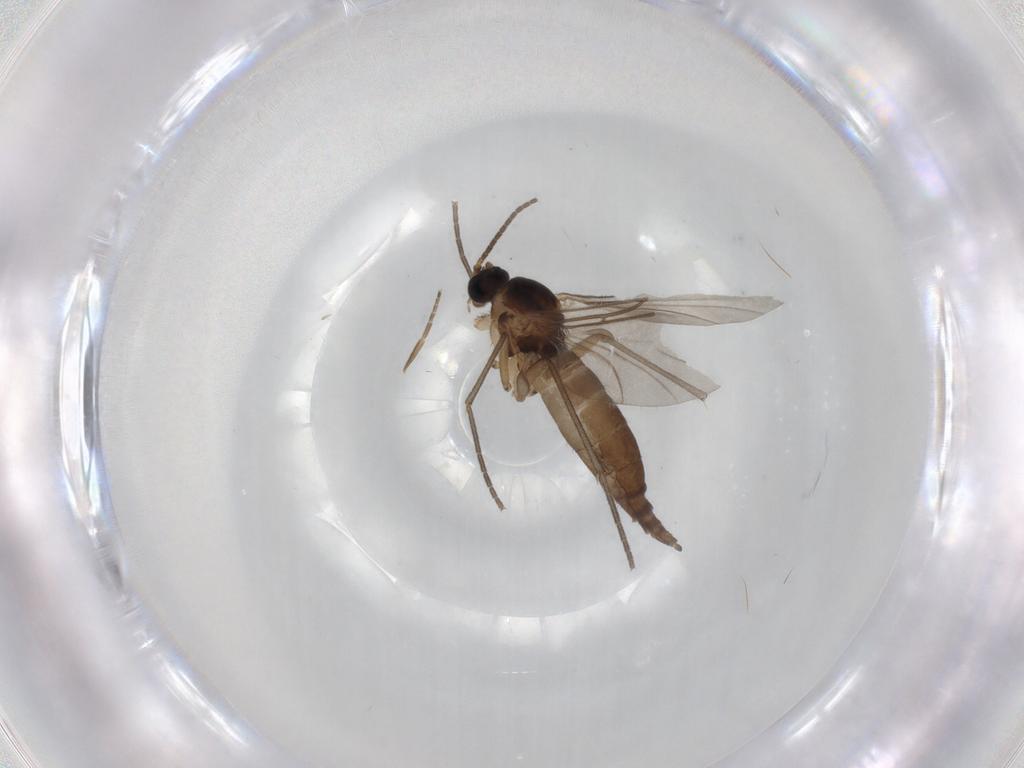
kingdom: Animalia
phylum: Arthropoda
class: Insecta
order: Diptera
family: Sciaridae
